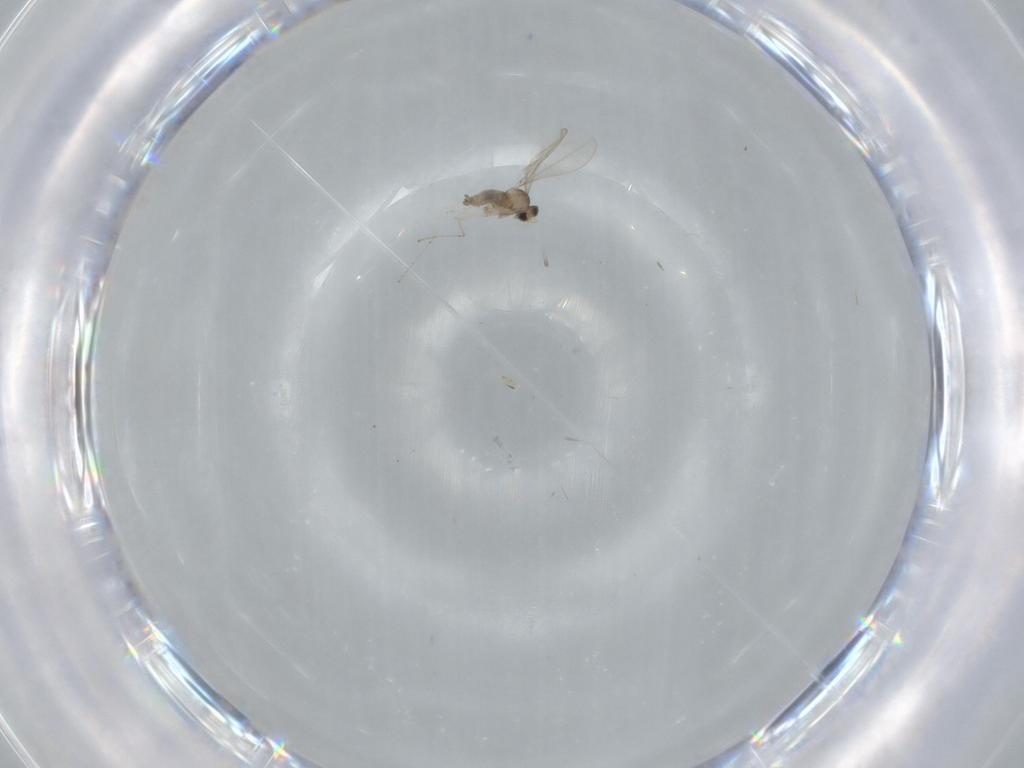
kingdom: Animalia
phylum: Arthropoda
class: Insecta
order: Diptera
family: Cecidomyiidae
